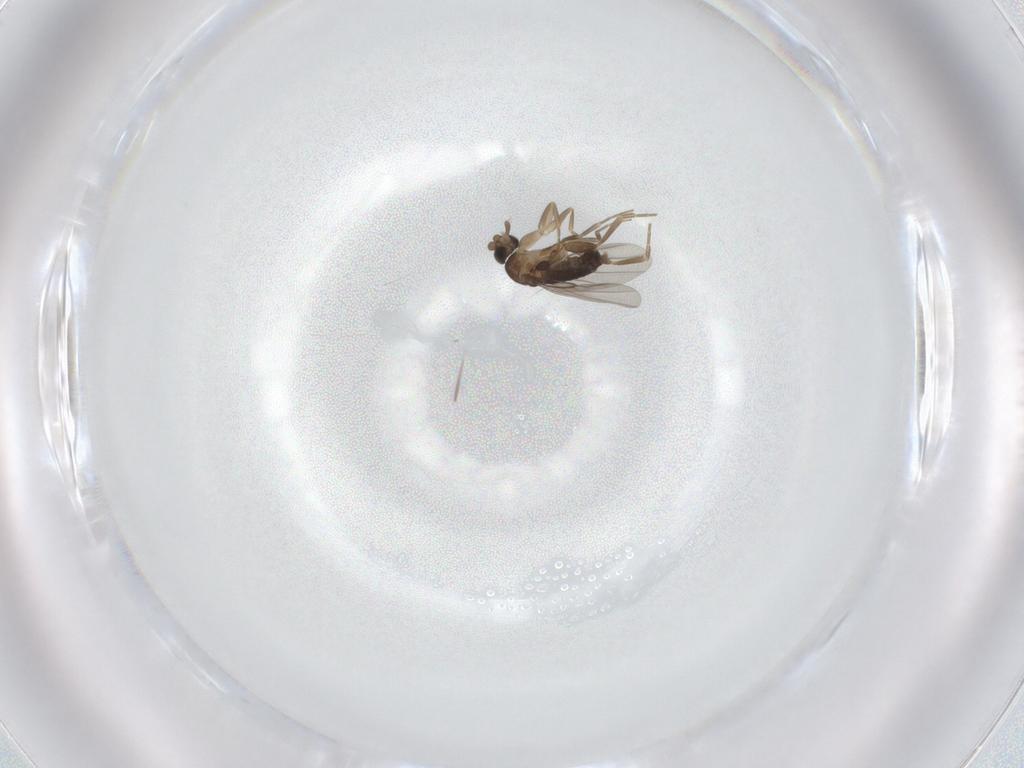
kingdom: Animalia
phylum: Arthropoda
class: Insecta
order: Diptera
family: Phoridae
